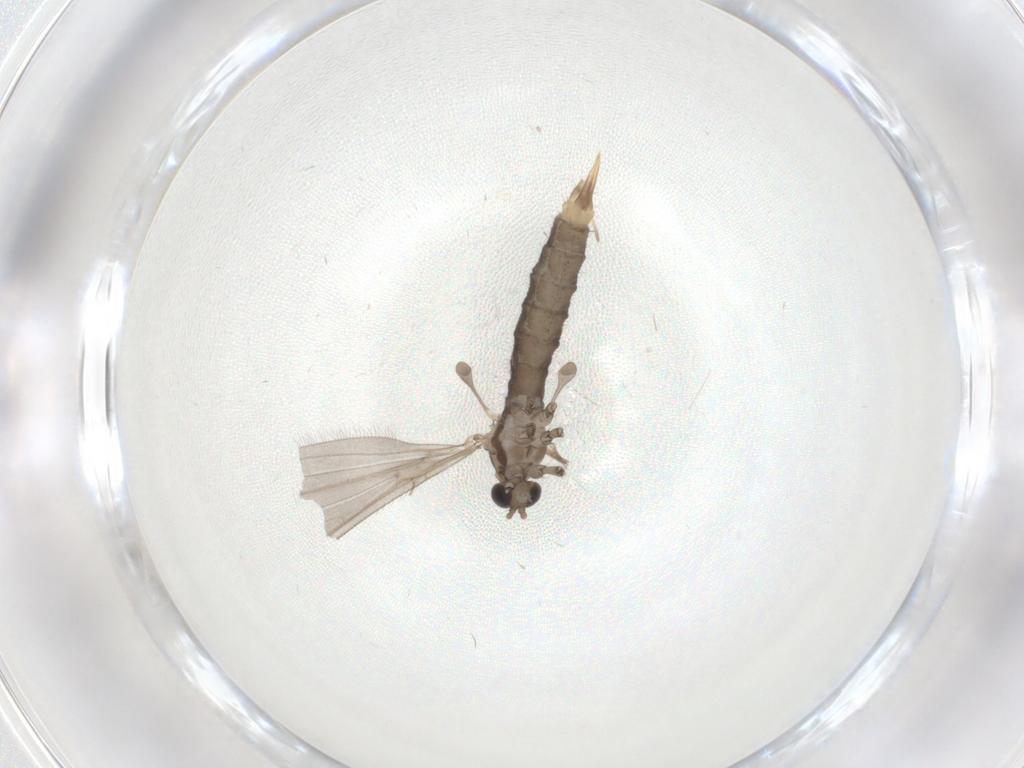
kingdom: Animalia
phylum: Arthropoda
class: Insecta
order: Diptera
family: Limoniidae
